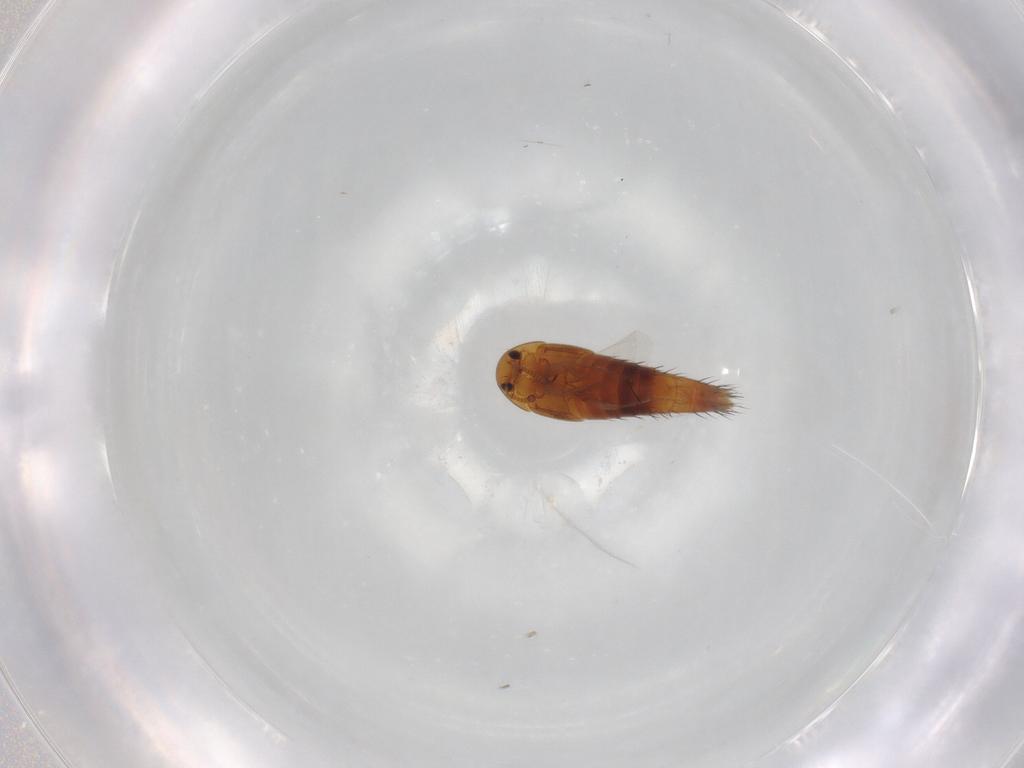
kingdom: Animalia
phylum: Arthropoda
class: Insecta
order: Coleoptera
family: Staphylinidae
